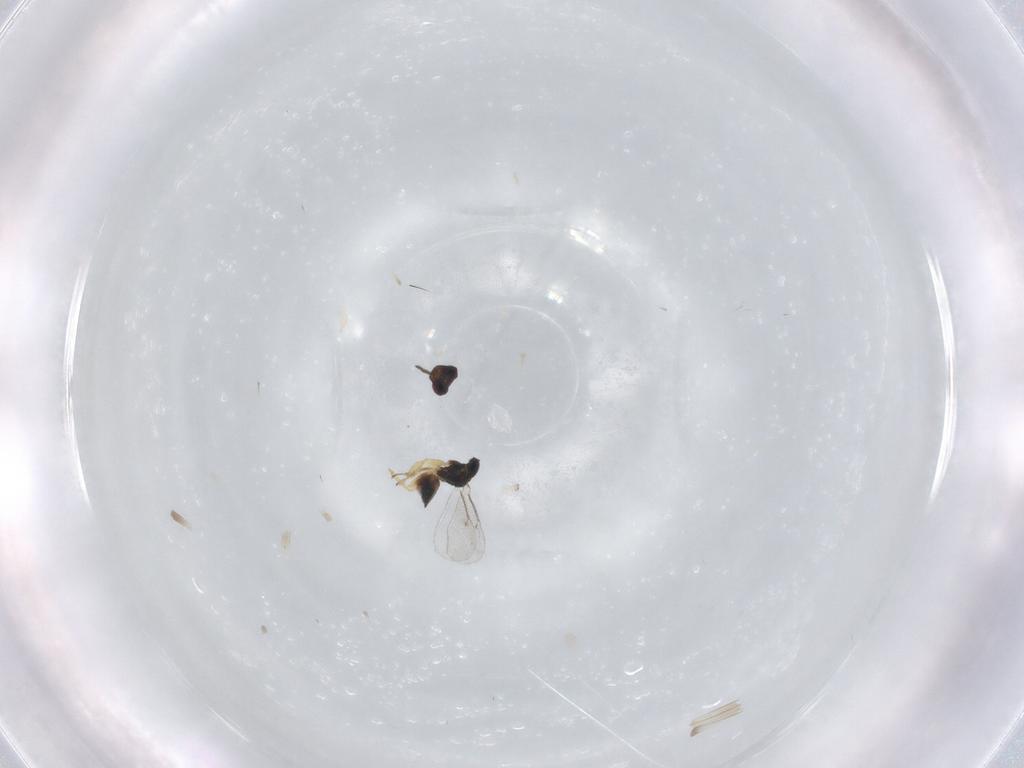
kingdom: Animalia
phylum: Arthropoda
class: Insecta
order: Hymenoptera
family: Eulophidae
